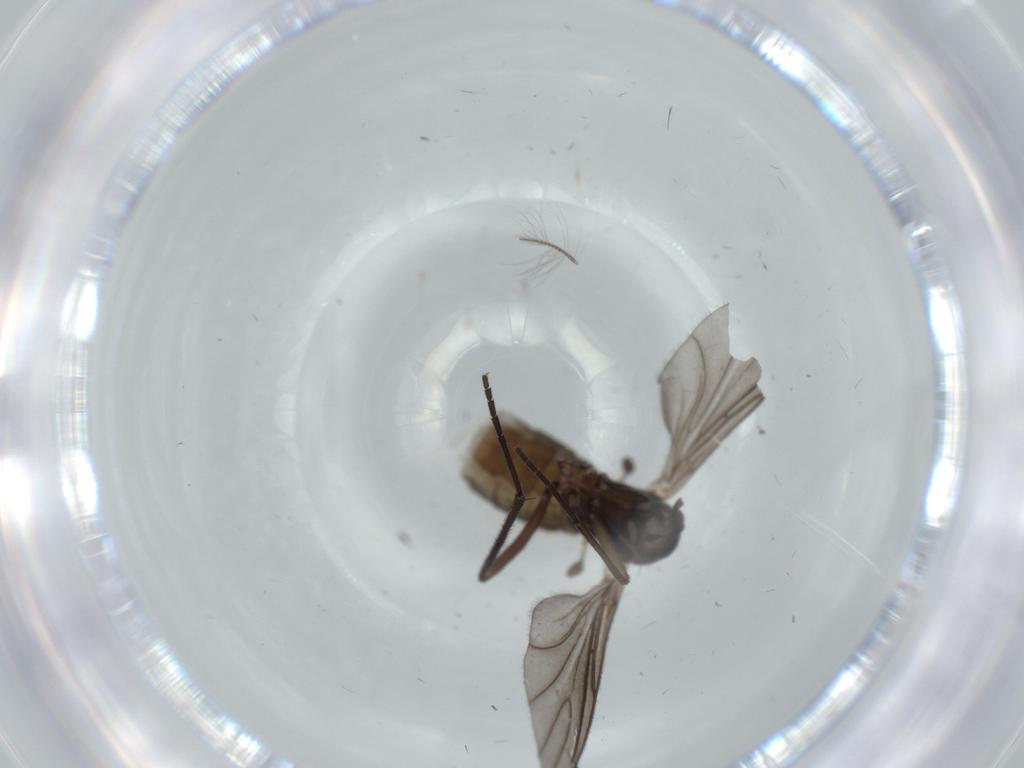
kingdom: Animalia
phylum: Arthropoda
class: Insecta
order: Diptera
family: Sciaridae
